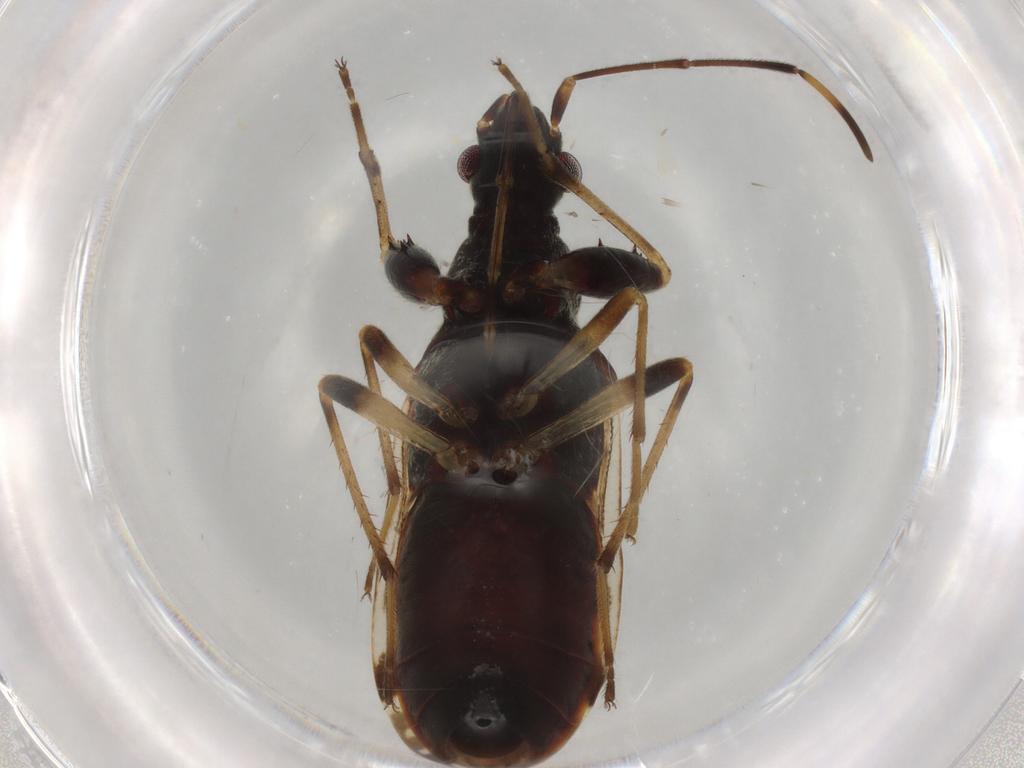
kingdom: Animalia
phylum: Arthropoda
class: Insecta
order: Hemiptera
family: Rhyparochromidae
